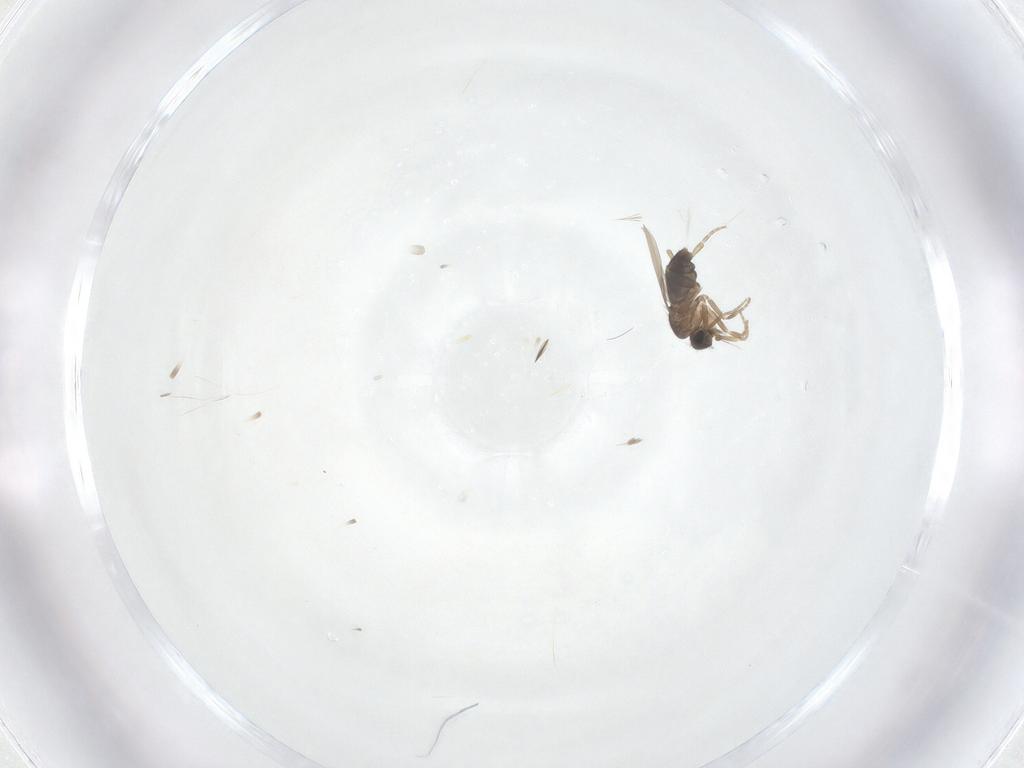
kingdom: Animalia
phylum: Arthropoda
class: Insecta
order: Diptera
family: Phoridae
